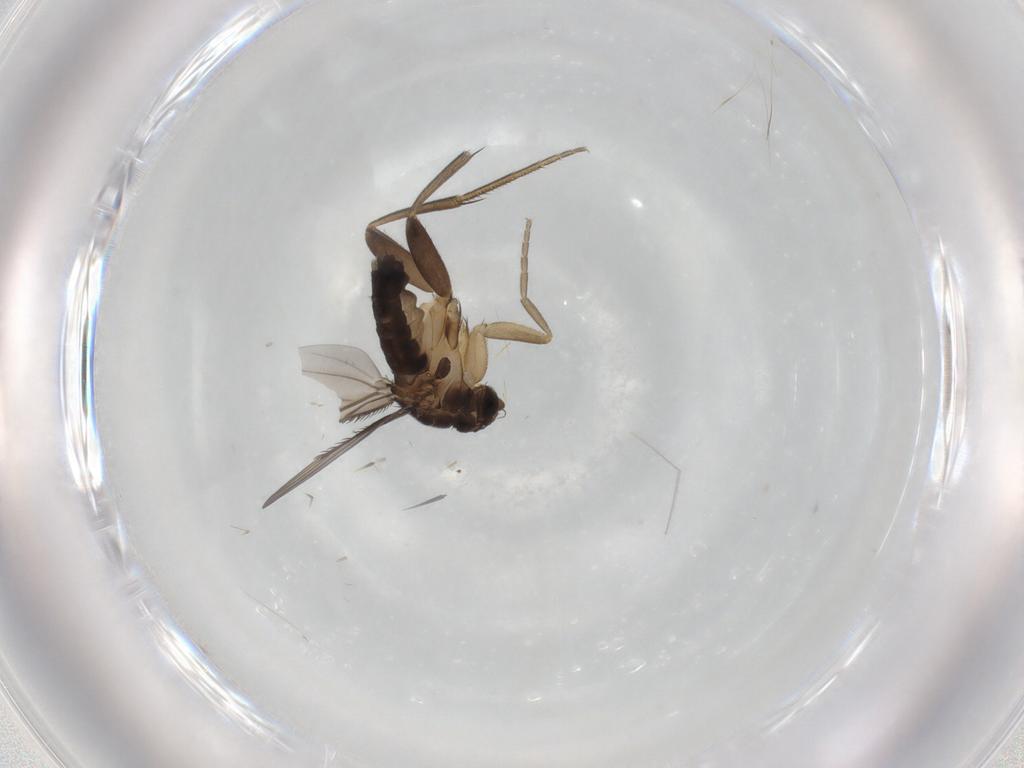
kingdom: Animalia
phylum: Arthropoda
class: Insecta
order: Diptera
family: Phoridae
